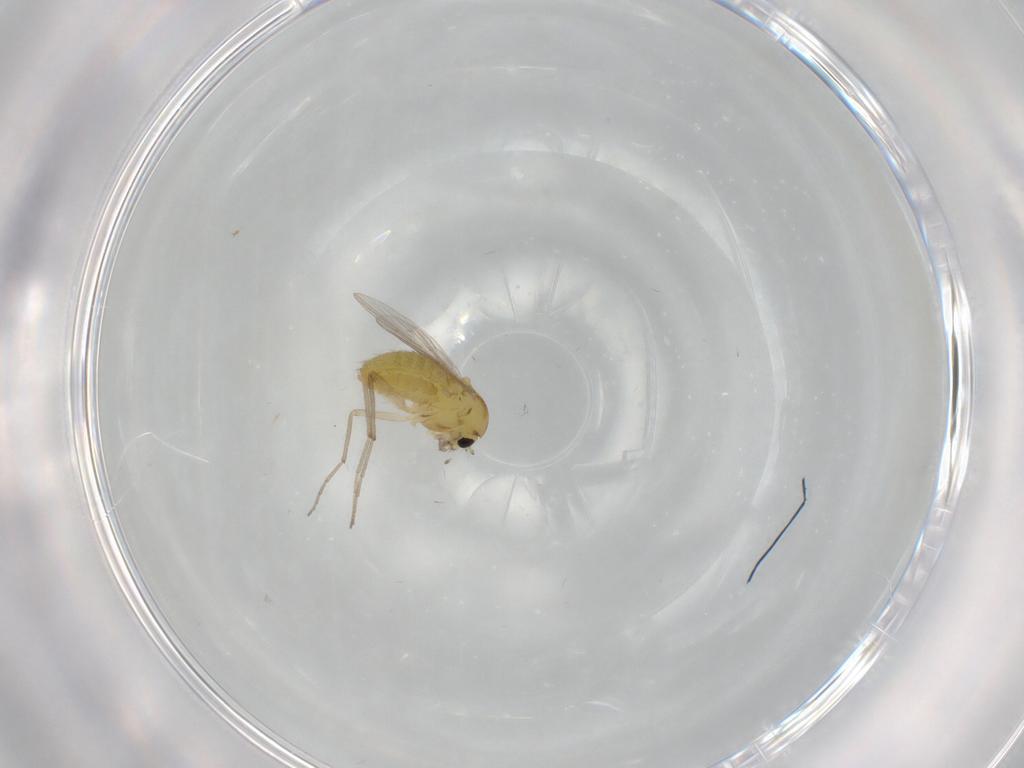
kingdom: Animalia
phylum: Arthropoda
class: Insecta
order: Diptera
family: Chironomidae
